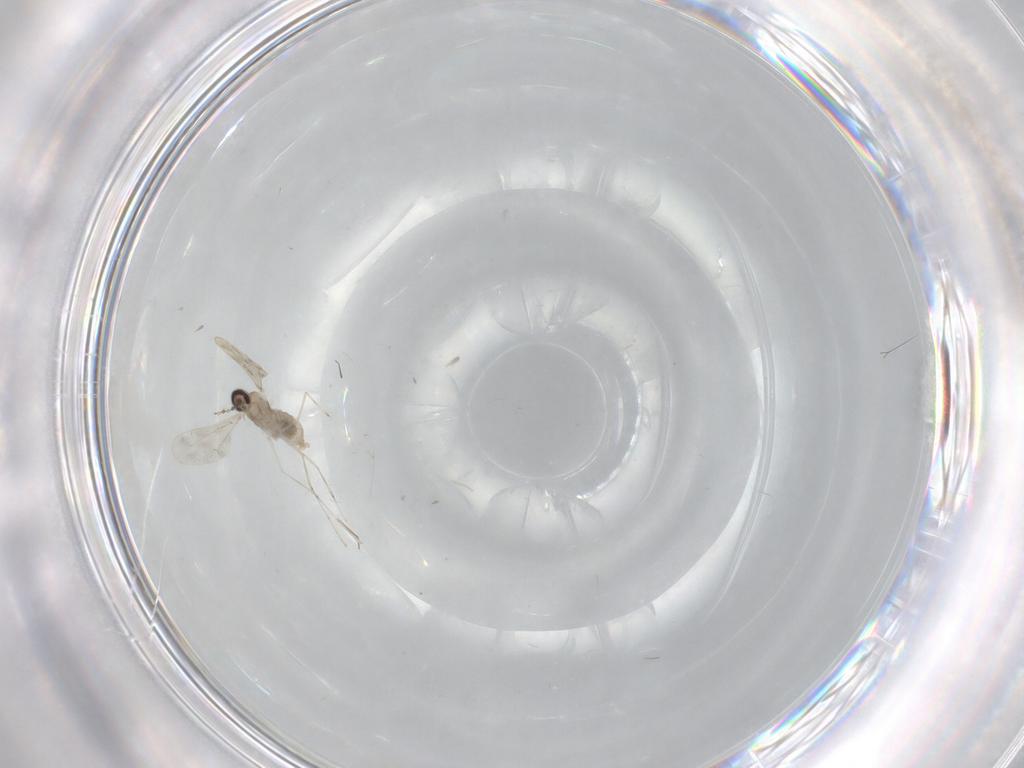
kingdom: Animalia
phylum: Arthropoda
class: Insecta
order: Diptera
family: Cecidomyiidae
